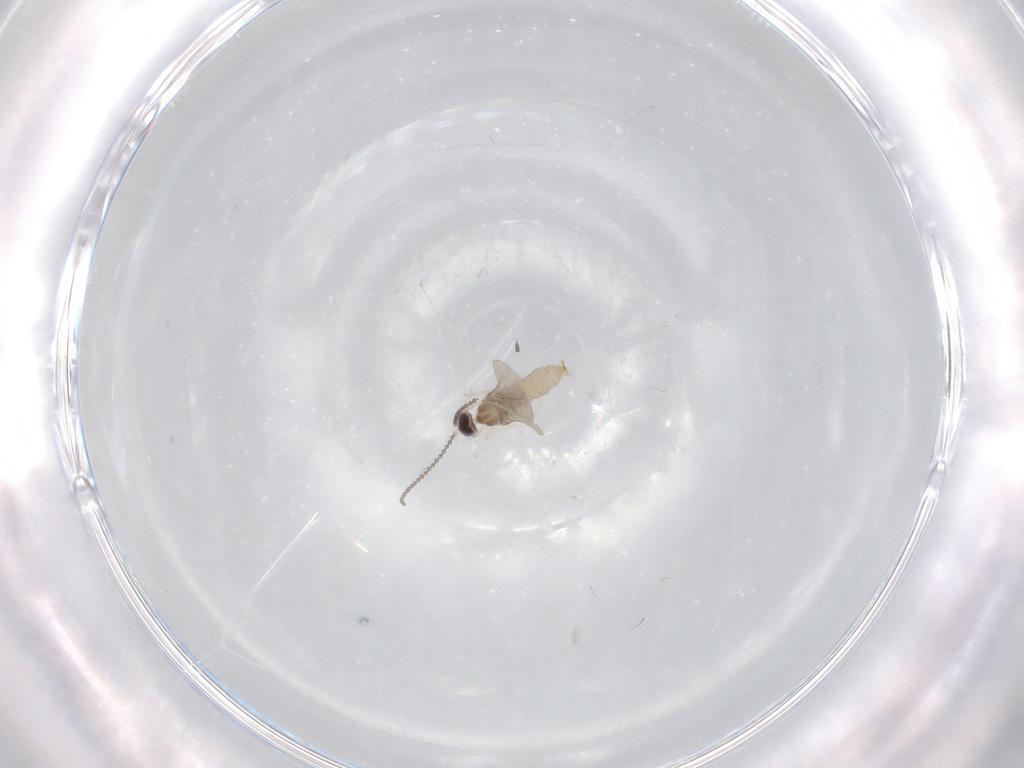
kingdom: Animalia
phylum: Arthropoda
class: Insecta
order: Diptera
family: Cecidomyiidae
